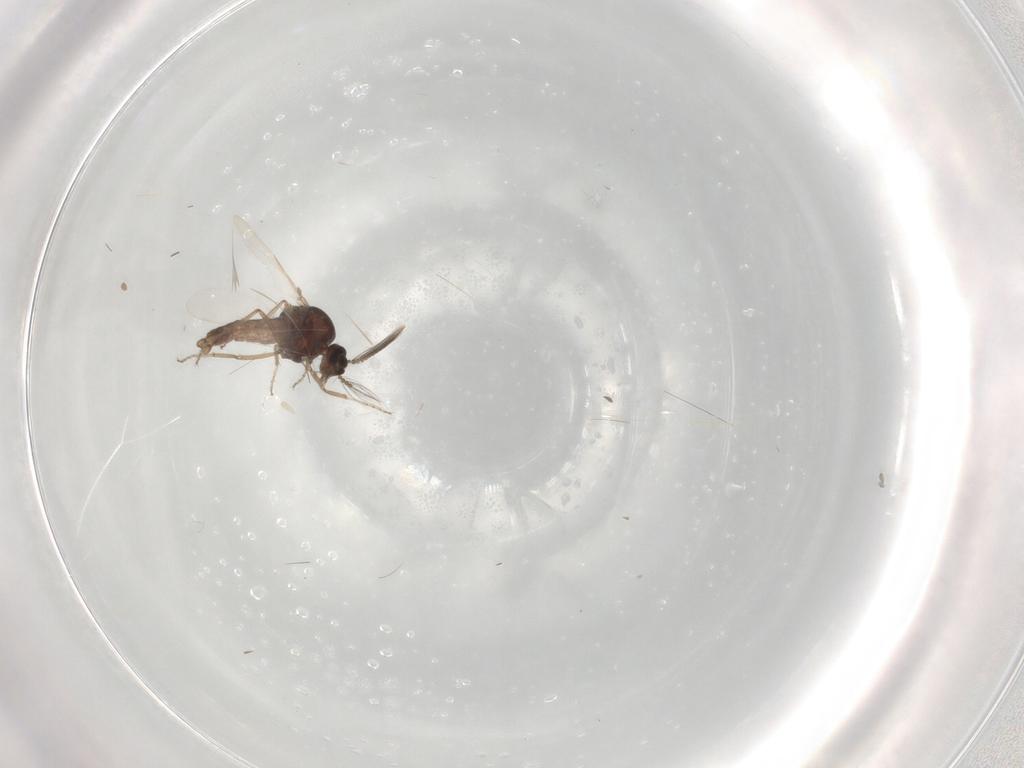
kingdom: Animalia
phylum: Arthropoda
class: Insecta
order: Diptera
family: Ceratopogonidae
